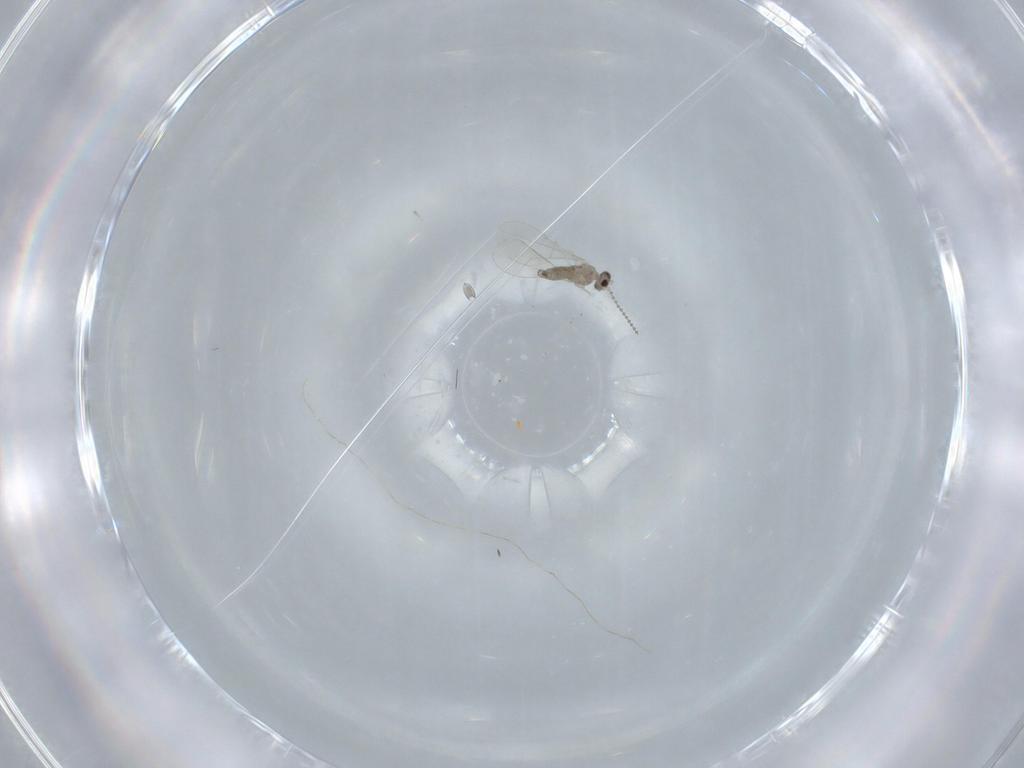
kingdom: Animalia
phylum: Arthropoda
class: Insecta
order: Diptera
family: Cecidomyiidae
